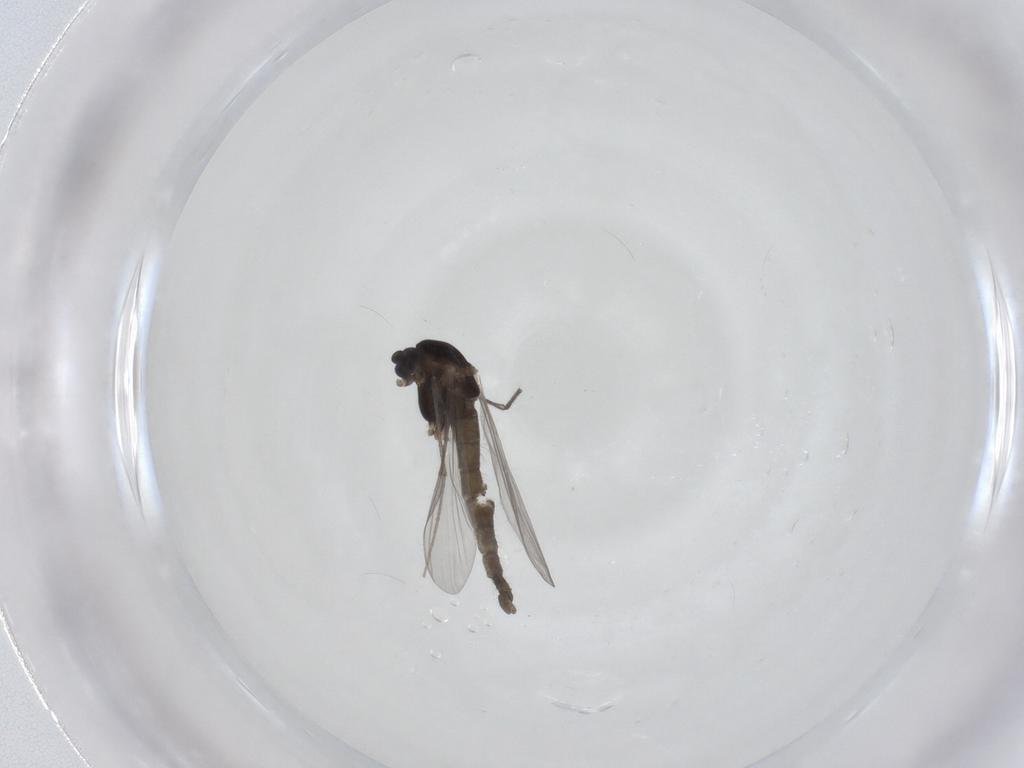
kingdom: Animalia
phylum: Arthropoda
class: Insecta
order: Diptera
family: Chironomidae
